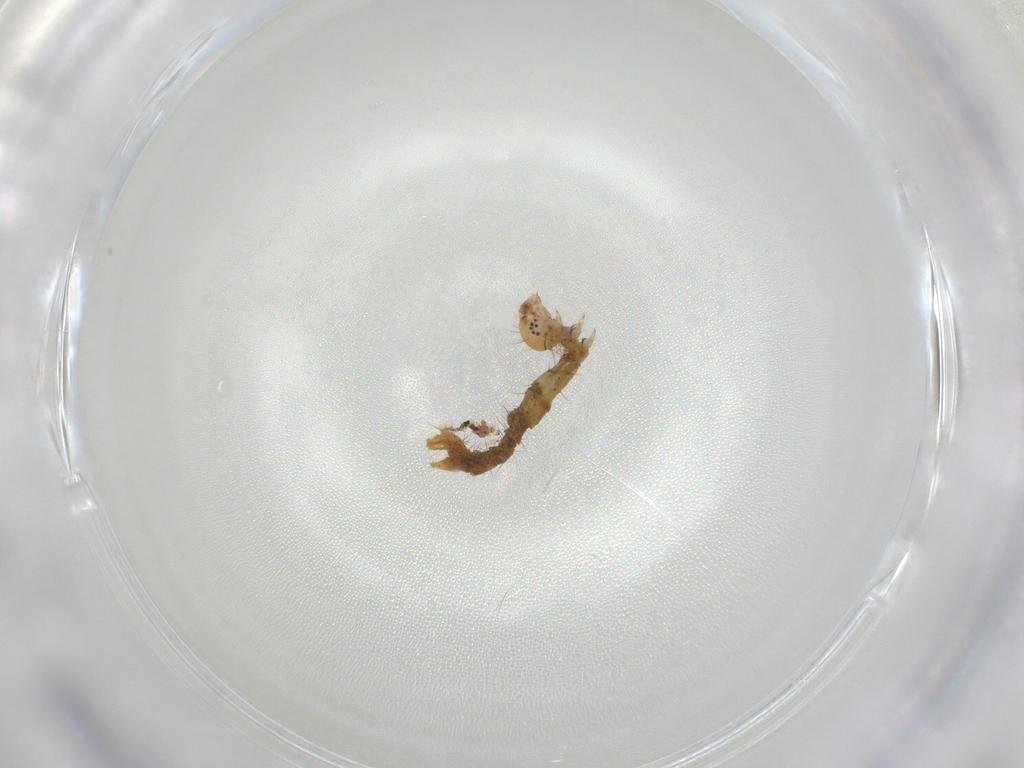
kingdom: Animalia
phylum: Arthropoda
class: Insecta
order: Lepidoptera
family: Geometridae
